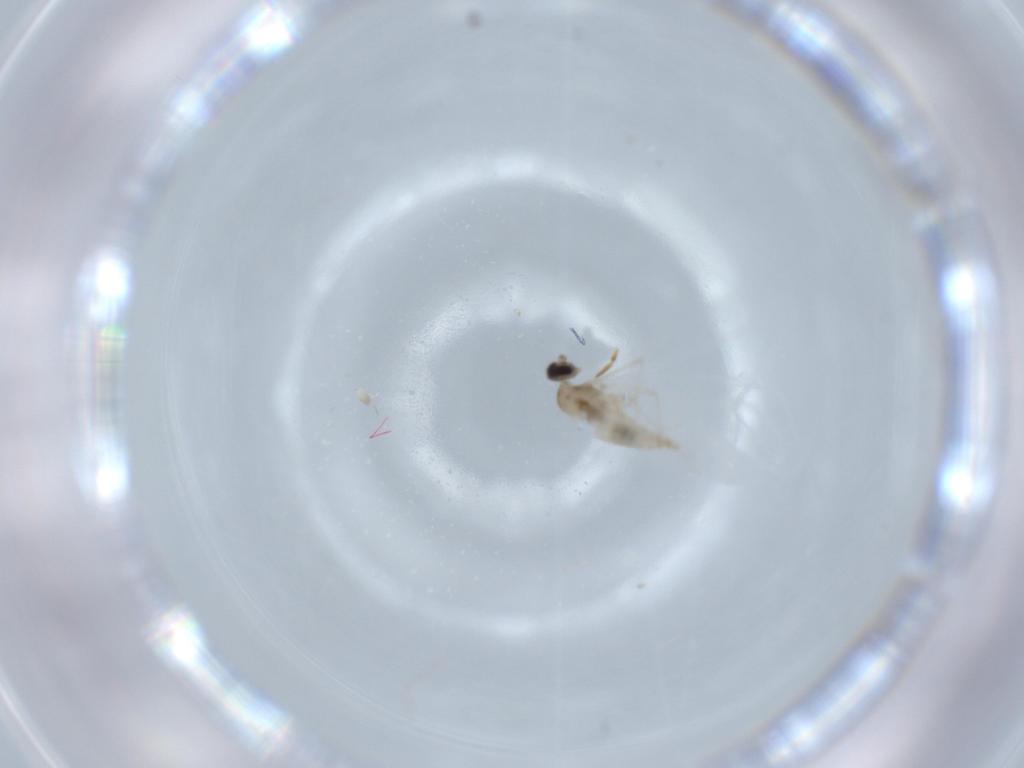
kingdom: Animalia
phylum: Arthropoda
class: Insecta
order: Diptera
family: Cecidomyiidae
